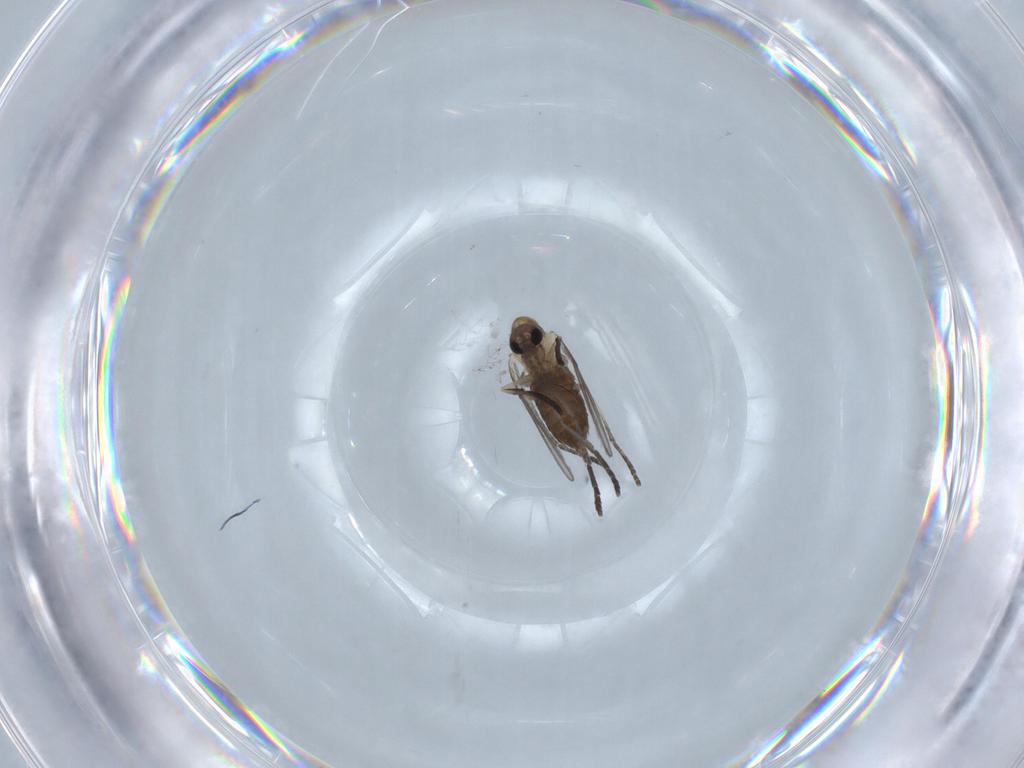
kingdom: Animalia
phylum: Arthropoda
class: Insecta
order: Diptera
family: Psychodidae
